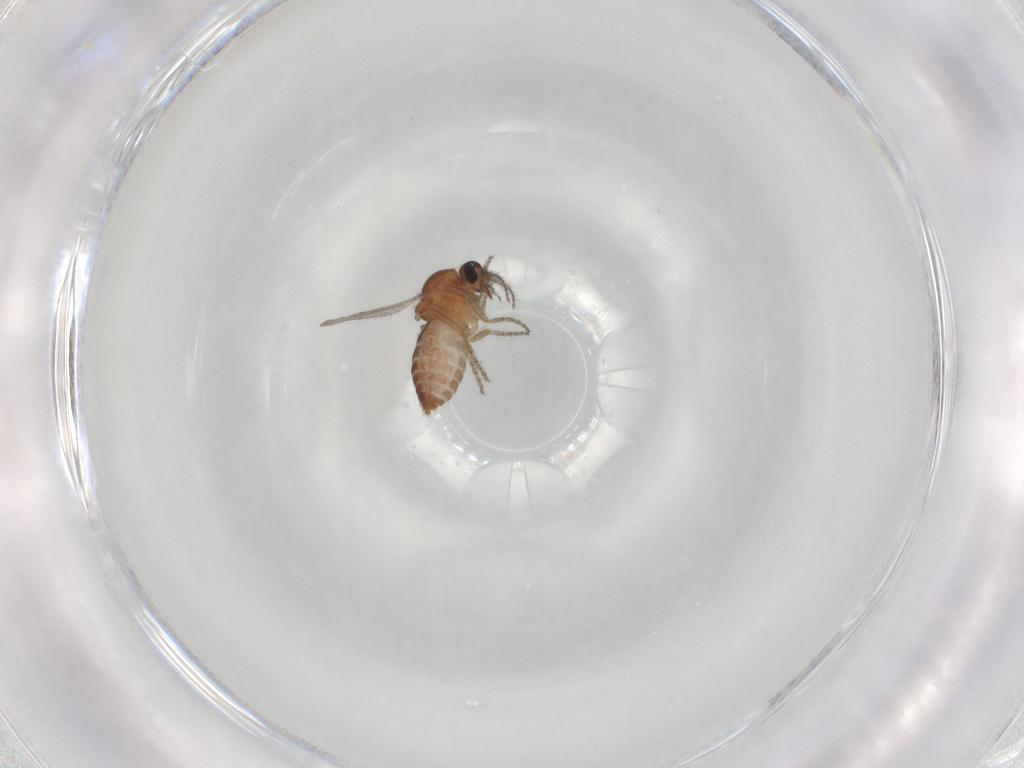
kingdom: Animalia
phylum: Arthropoda
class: Insecta
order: Diptera
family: Ceratopogonidae
